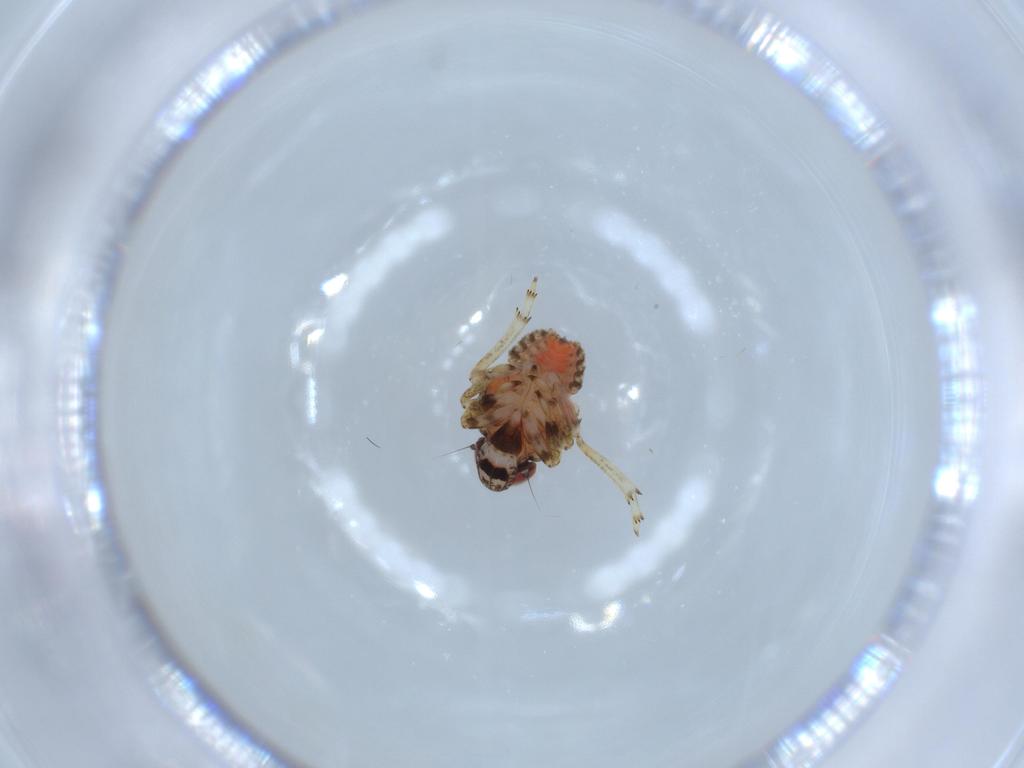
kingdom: Animalia
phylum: Arthropoda
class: Insecta
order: Hemiptera
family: Issidae
